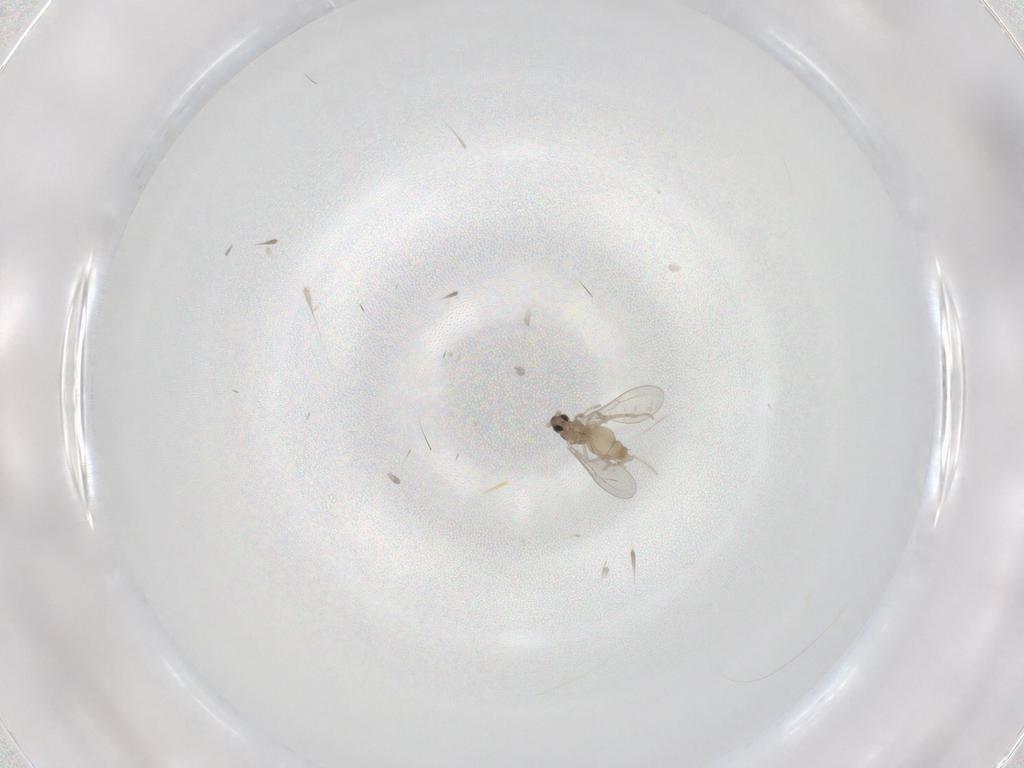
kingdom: Animalia
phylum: Arthropoda
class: Insecta
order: Diptera
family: Cecidomyiidae
